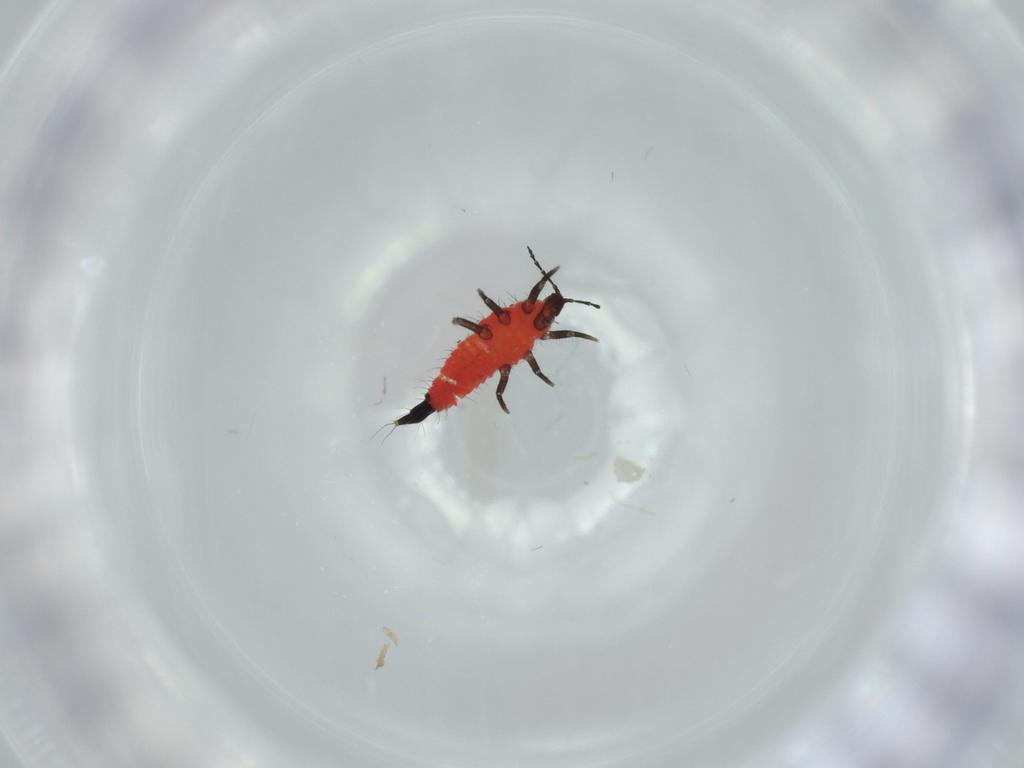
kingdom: Animalia
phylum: Arthropoda
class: Insecta
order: Thysanoptera
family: Phlaeothripidae
